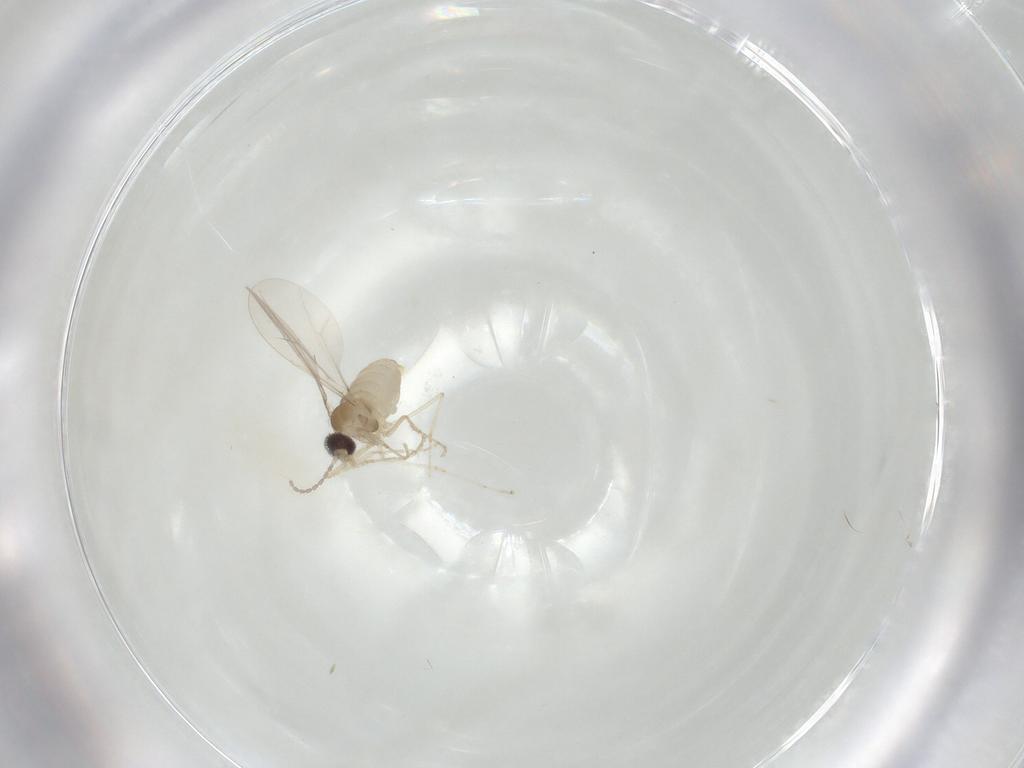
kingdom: Animalia
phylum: Arthropoda
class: Insecta
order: Diptera
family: Cecidomyiidae
